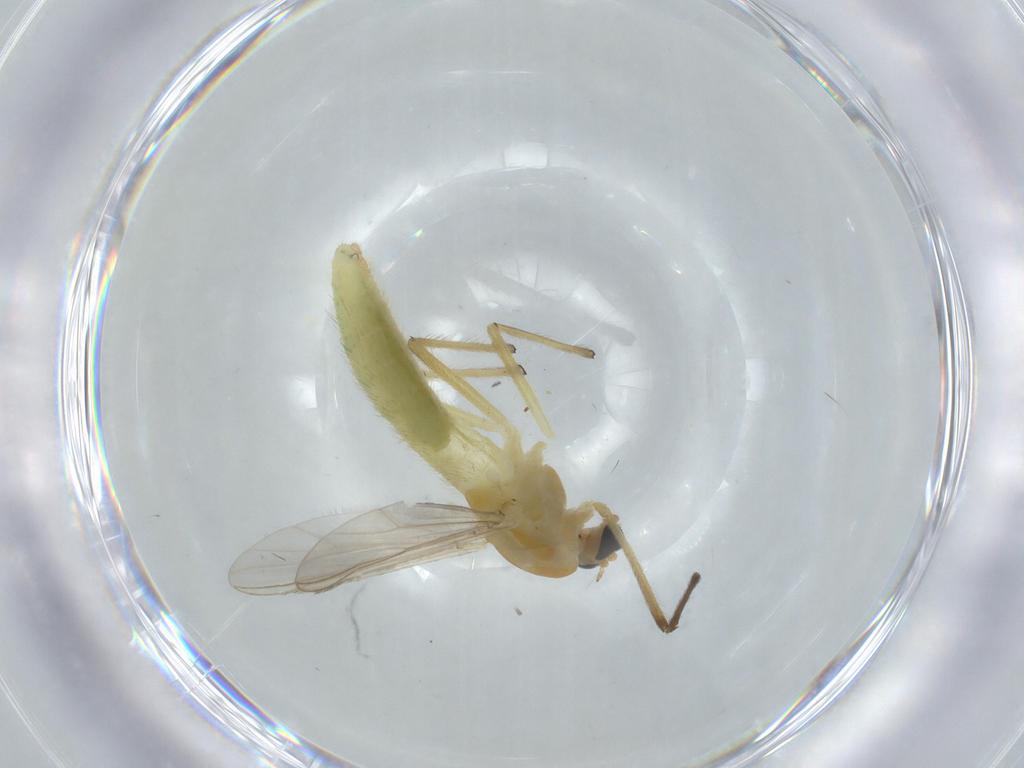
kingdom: Animalia
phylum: Arthropoda
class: Insecta
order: Diptera
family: Chironomidae
